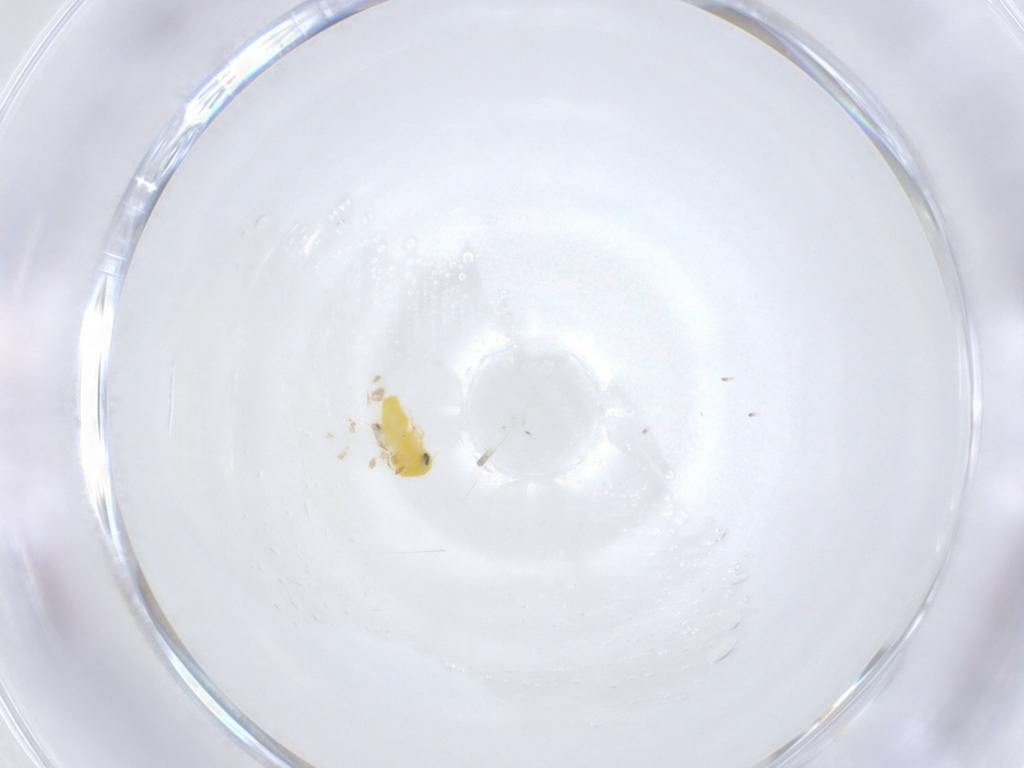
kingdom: Animalia
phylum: Arthropoda
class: Insecta
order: Hemiptera
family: Aleyrodidae
